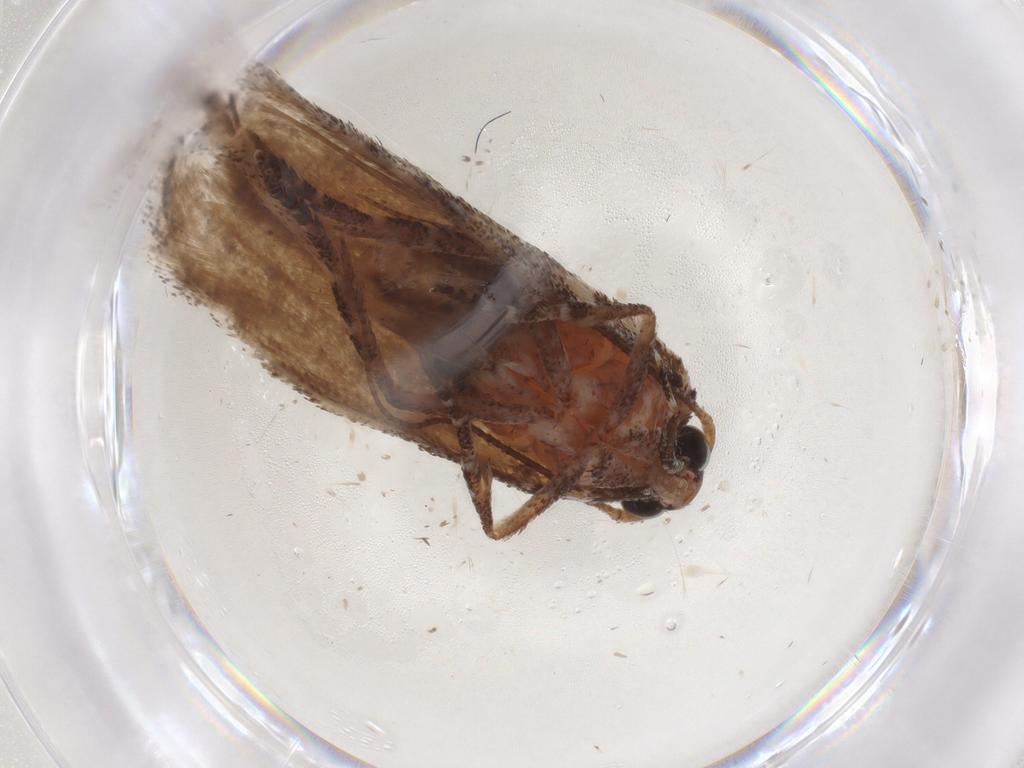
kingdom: Animalia
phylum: Arthropoda
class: Insecta
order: Lepidoptera
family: Cosmopterigidae
